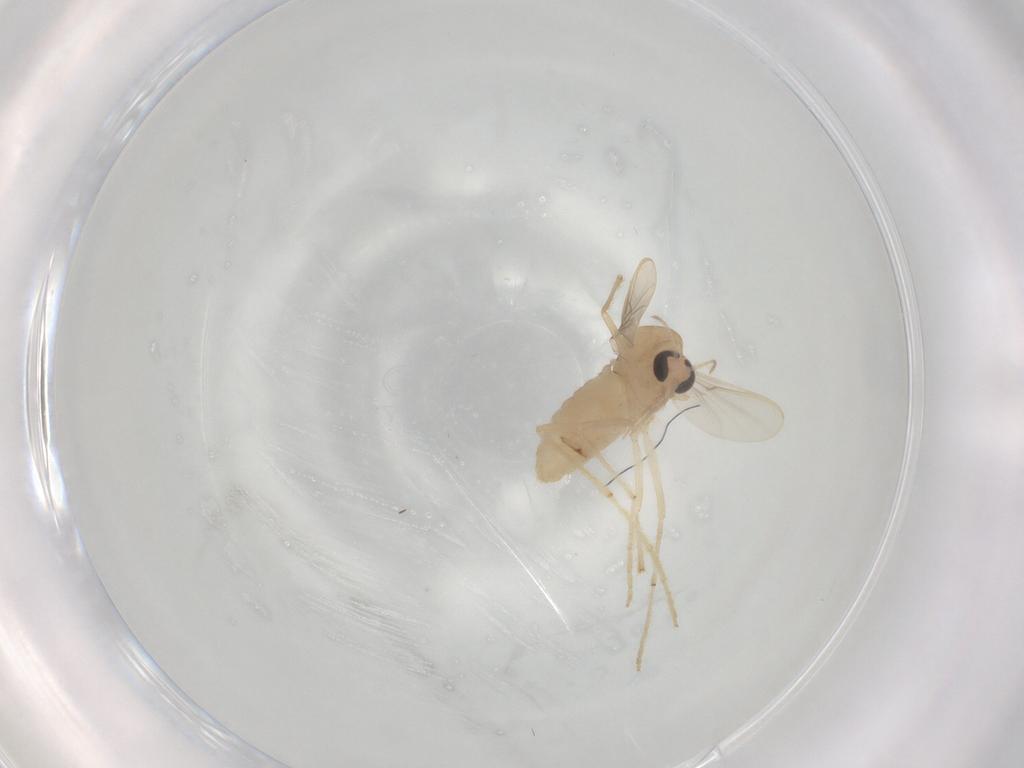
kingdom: Animalia
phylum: Arthropoda
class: Insecta
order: Diptera
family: Chironomidae
